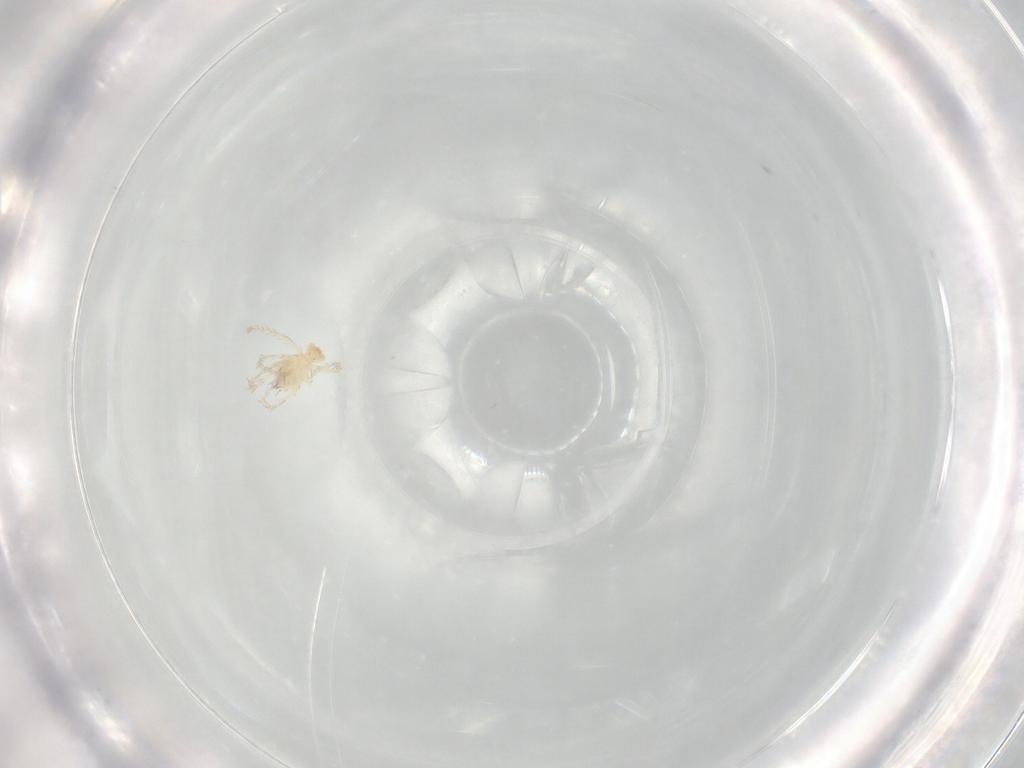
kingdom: Animalia
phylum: Arthropoda
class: Arachnida
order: Trombidiformes
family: Erythraeidae
